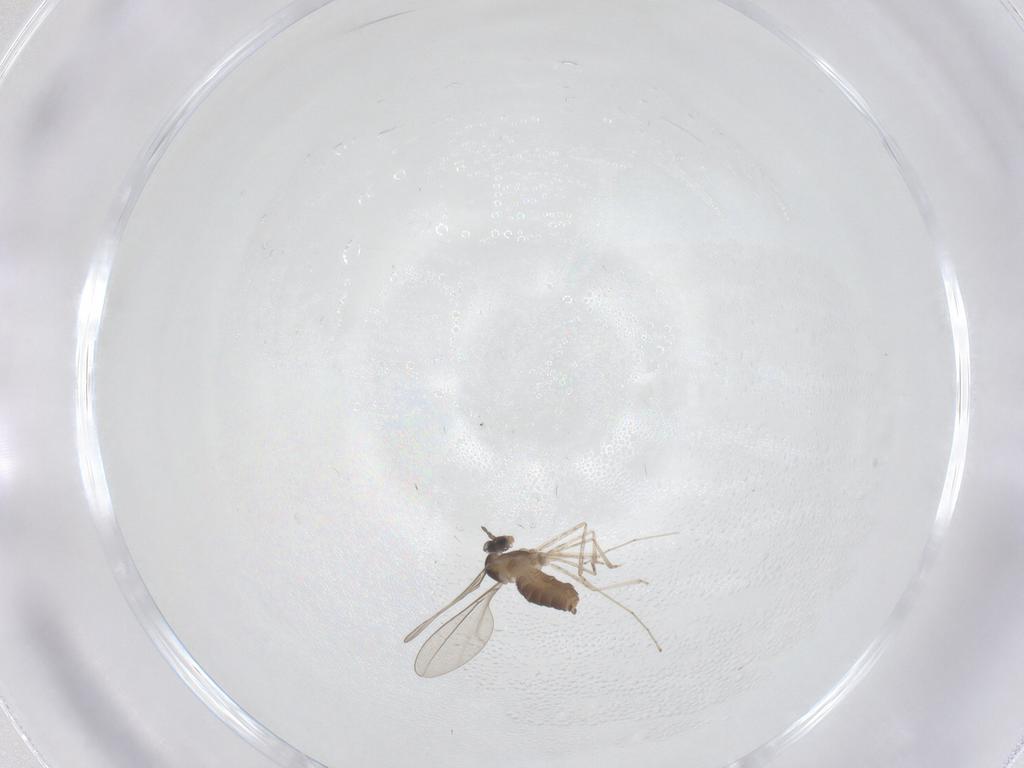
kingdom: Animalia
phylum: Arthropoda
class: Insecta
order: Diptera
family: Cecidomyiidae
